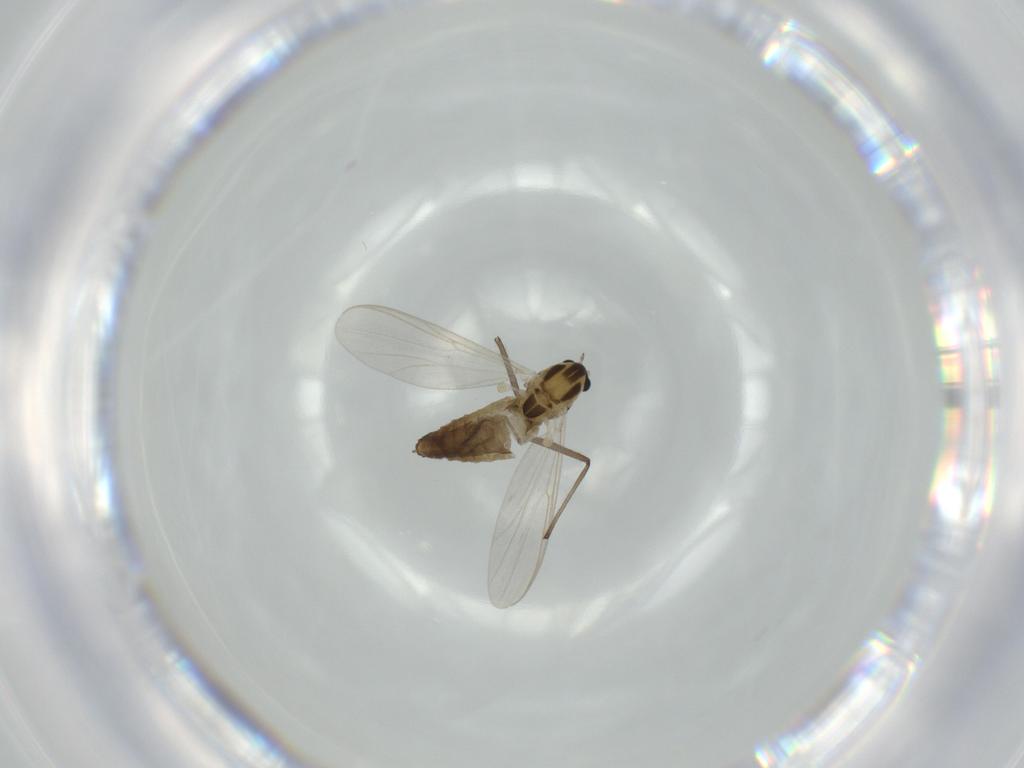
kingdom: Animalia
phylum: Arthropoda
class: Insecta
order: Diptera
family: Chironomidae
